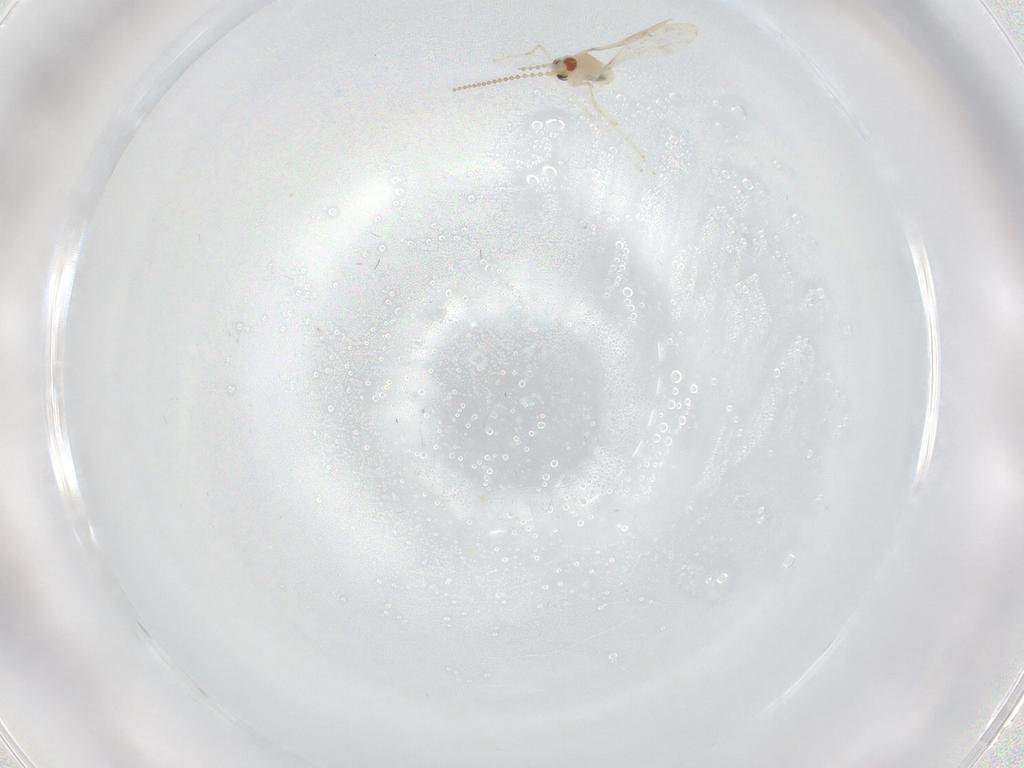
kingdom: Animalia
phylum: Arthropoda
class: Insecta
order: Diptera
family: Cecidomyiidae
